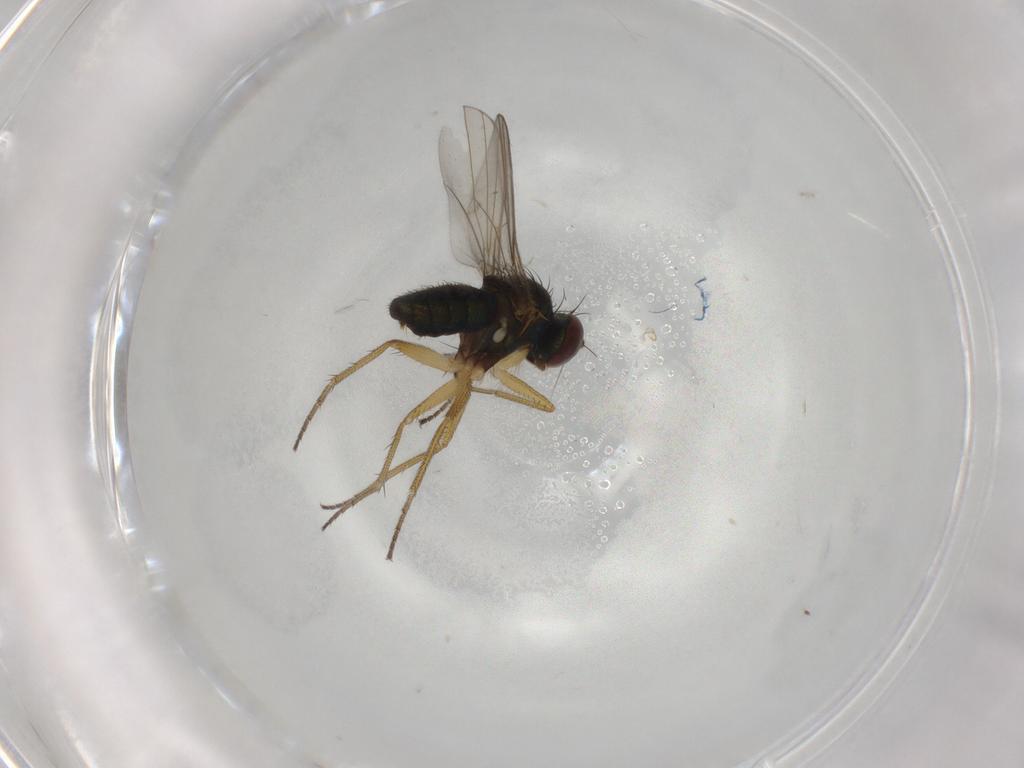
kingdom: Animalia
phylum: Arthropoda
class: Insecta
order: Diptera
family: Dolichopodidae
